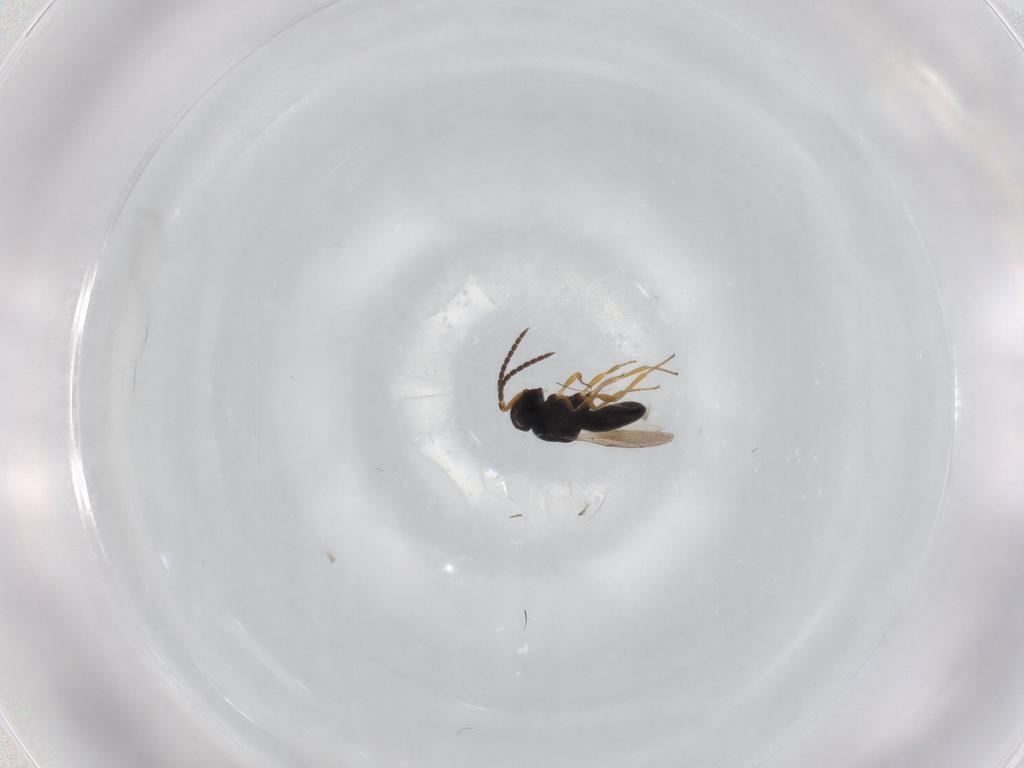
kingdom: Animalia
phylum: Arthropoda
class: Insecta
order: Hymenoptera
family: Scelionidae
